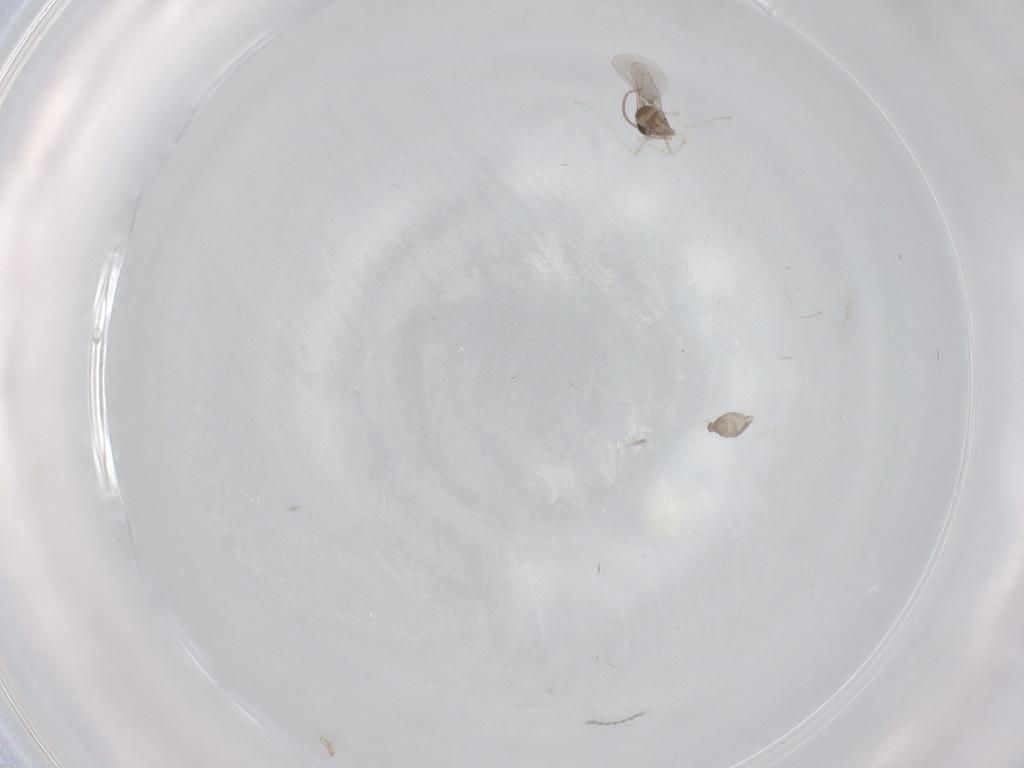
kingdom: Animalia
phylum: Arthropoda
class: Insecta
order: Diptera
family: Cecidomyiidae
